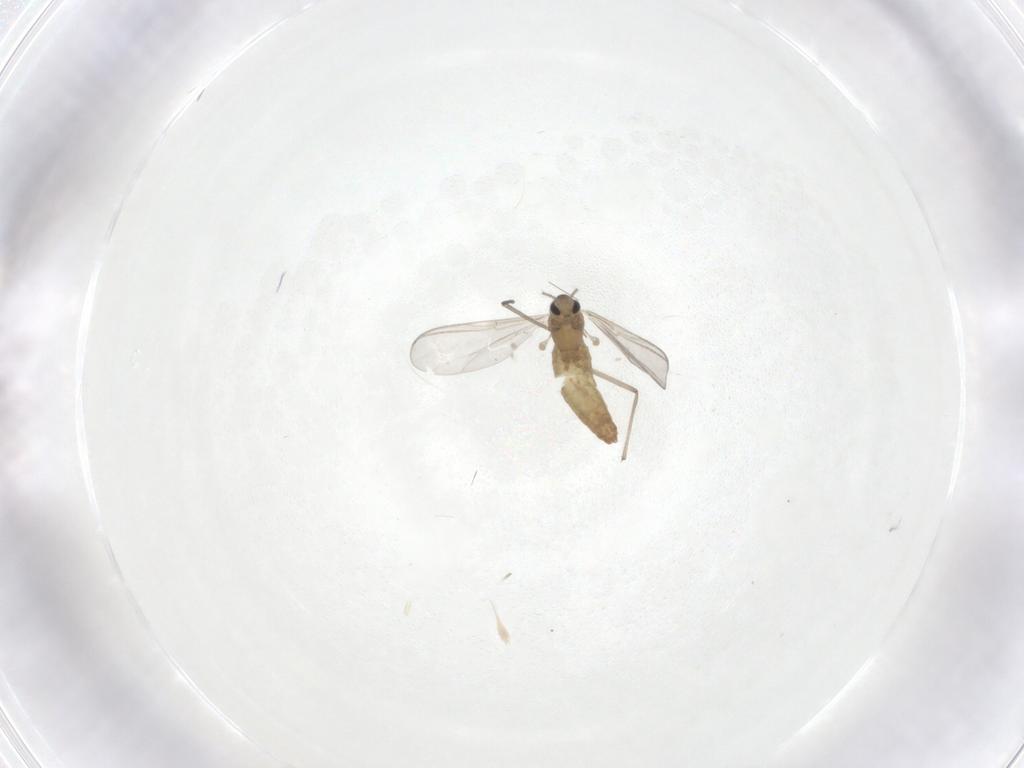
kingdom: Animalia
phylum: Arthropoda
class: Insecta
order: Diptera
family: Chironomidae
